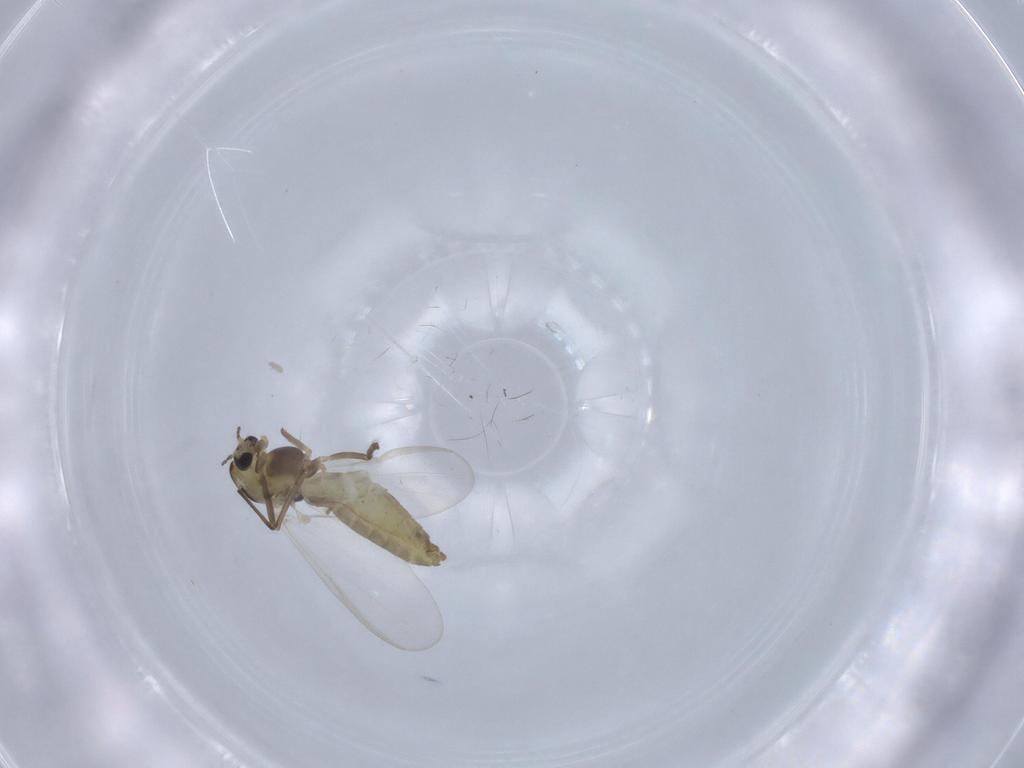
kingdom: Animalia
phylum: Arthropoda
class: Insecta
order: Diptera
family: Chironomidae
